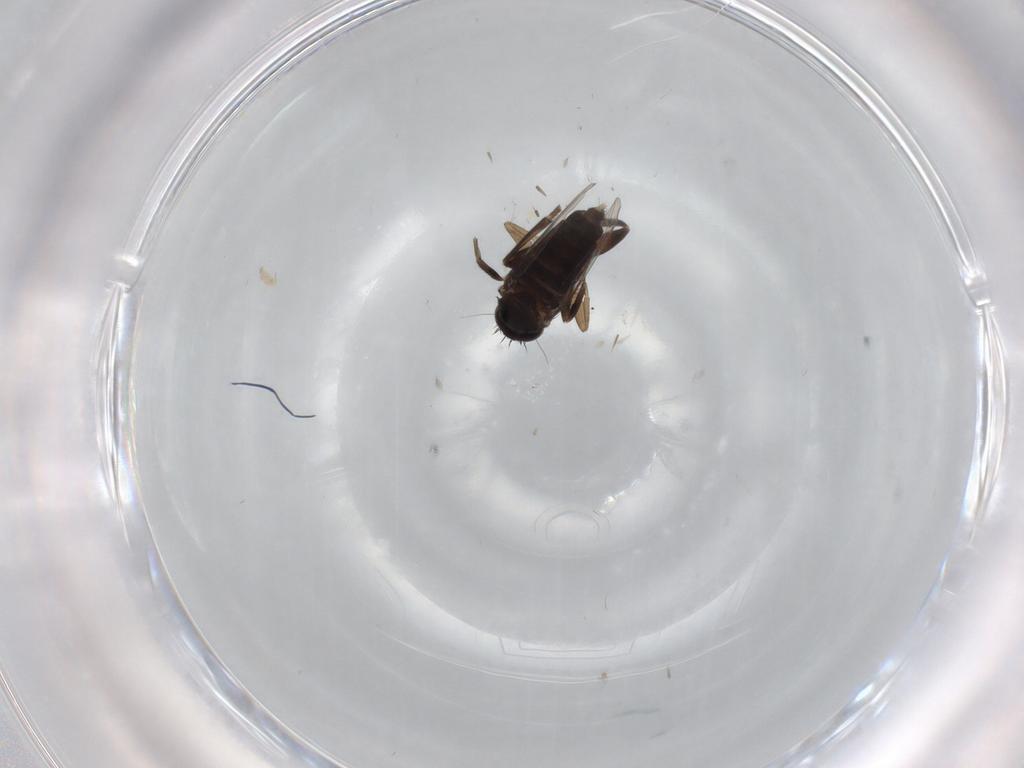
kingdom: Animalia
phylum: Arthropoda
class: Insecta
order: Diptera
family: Phoridae
